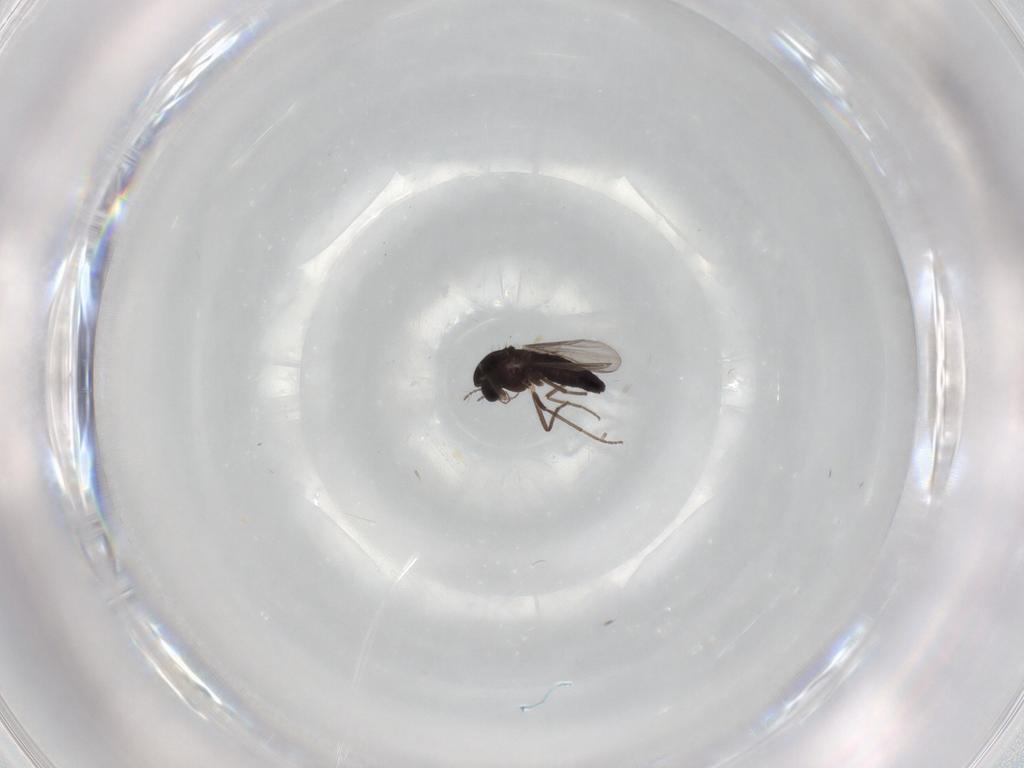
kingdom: Animalia
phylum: Arthropoda
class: Insecta
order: Diptera
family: Chironomidae
